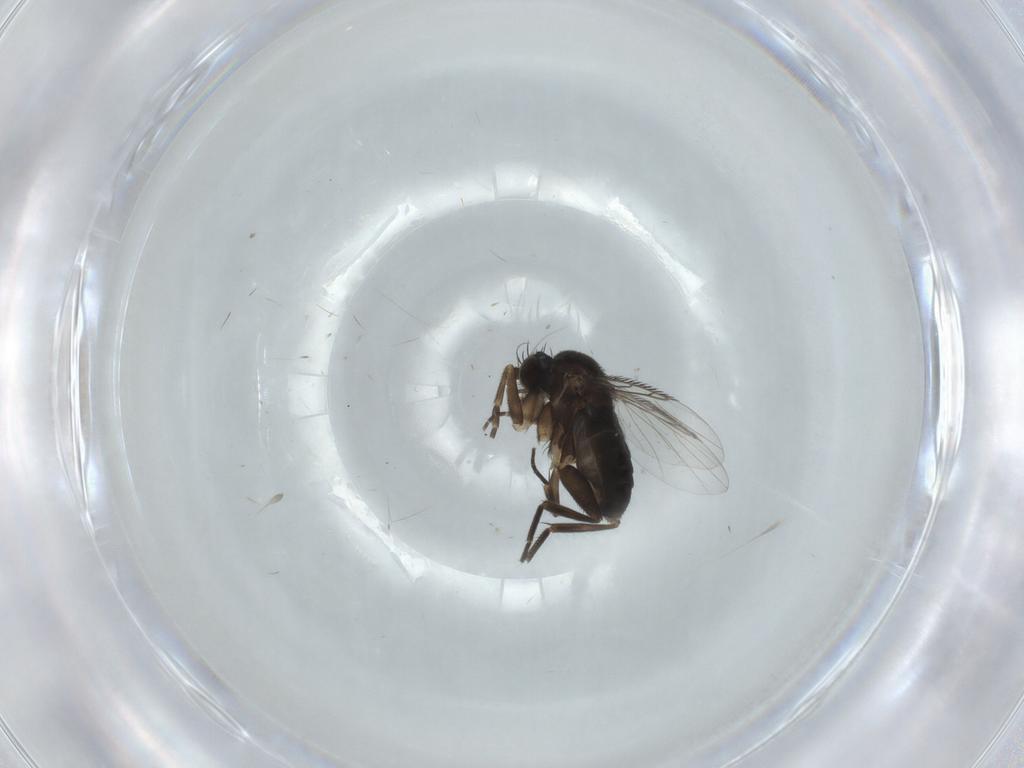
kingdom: Animalia
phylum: Arthropoda
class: Insecta
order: Diptera
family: Phoridae
